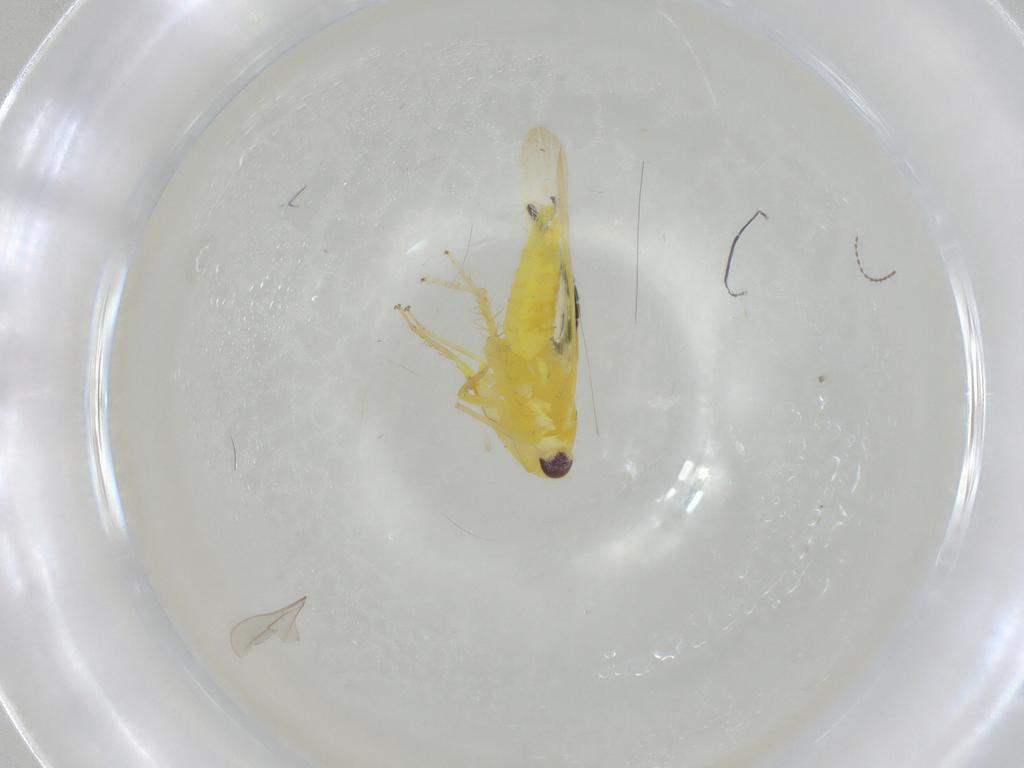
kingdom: Animalia
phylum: Arthropoda
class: Insecta
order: Hemiptera
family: Cicadellidae
